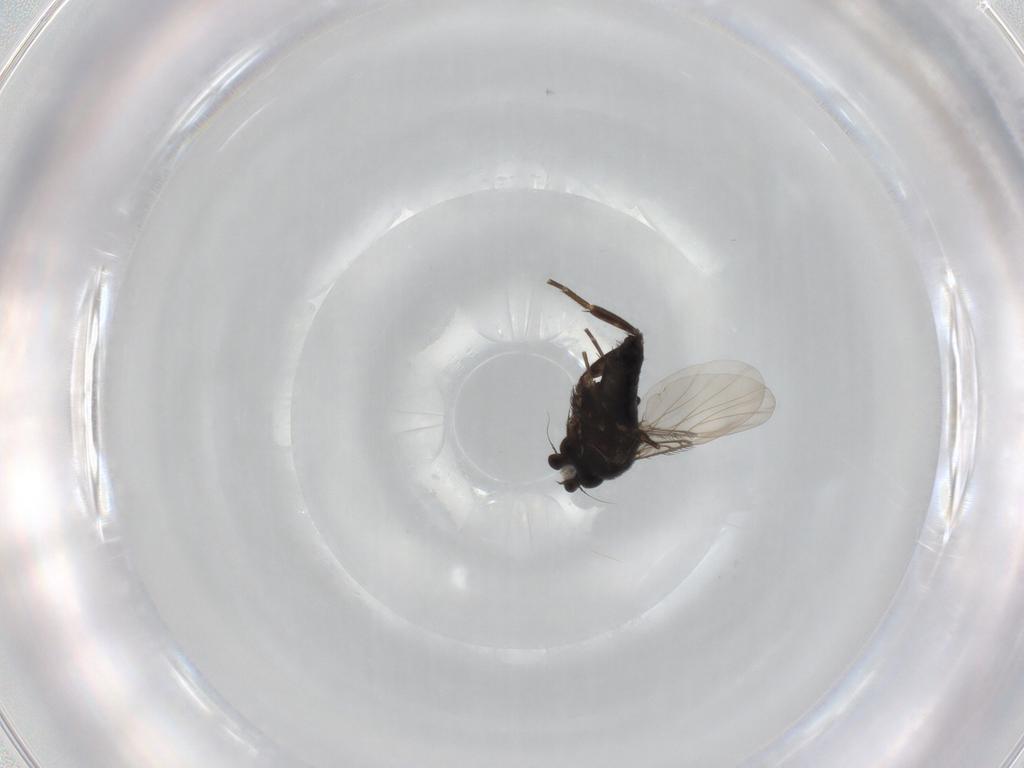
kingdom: Animalia
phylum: Arthropoda
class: Insecta
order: Diptera
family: Phoridae
